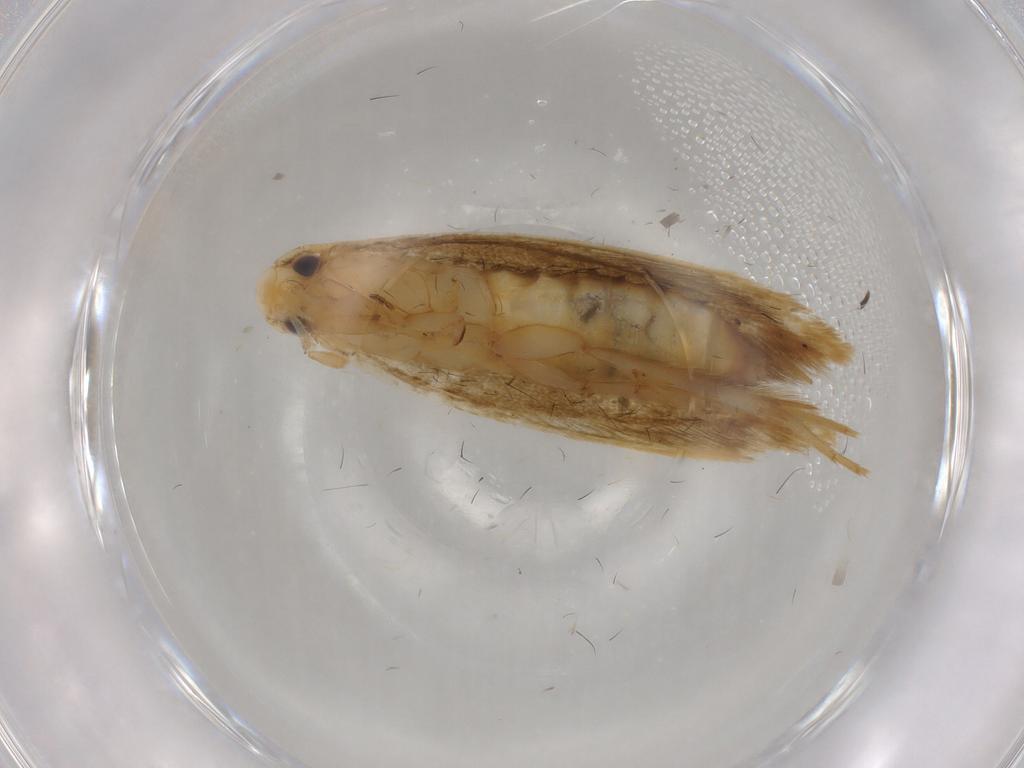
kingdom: Animalia
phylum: Arthropoda
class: Insecta
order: Lepidoptera
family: Tineidae
